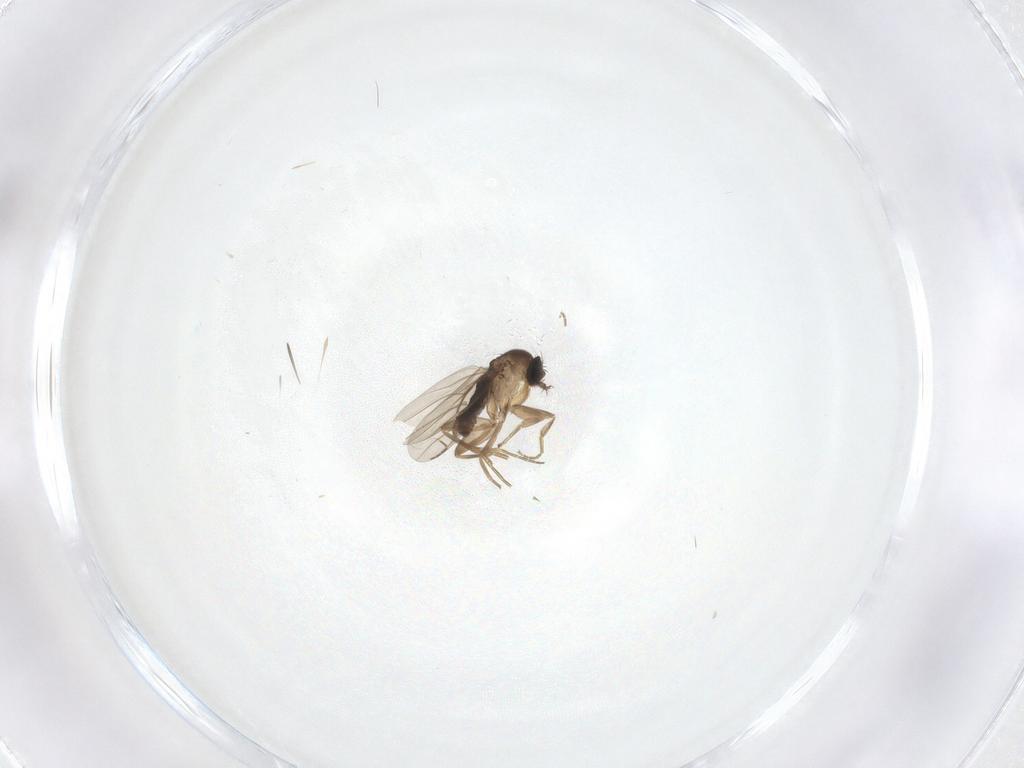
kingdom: Animalia
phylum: Arthropoda
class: Insecta
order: Diptera
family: Phoridae
